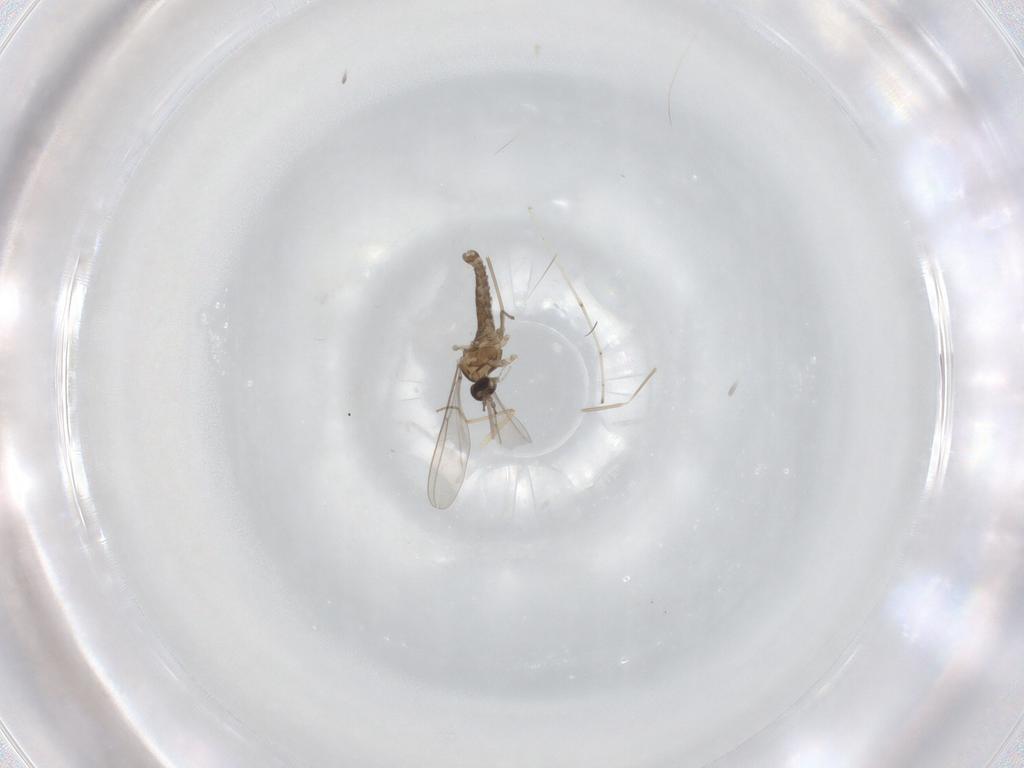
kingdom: Animalia
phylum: Arthropoda
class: Insecta
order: Diptera
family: Chironomidae
